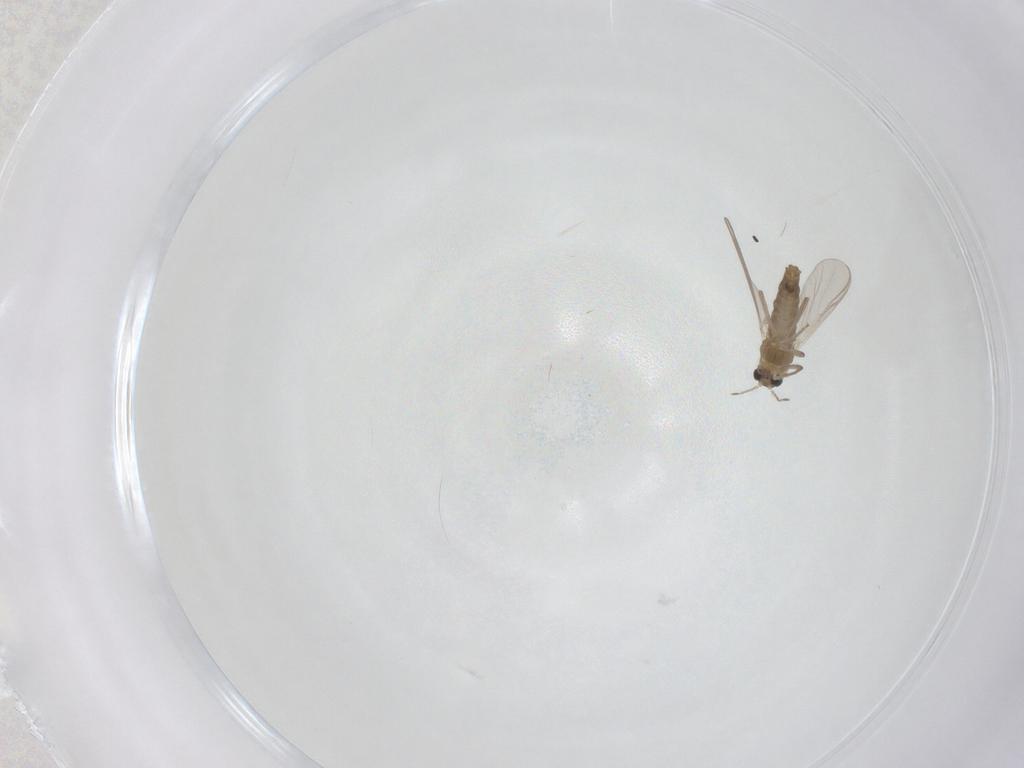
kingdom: Animalia
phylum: Arthropoda
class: Insecta
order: Diptera
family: Chironomidae
